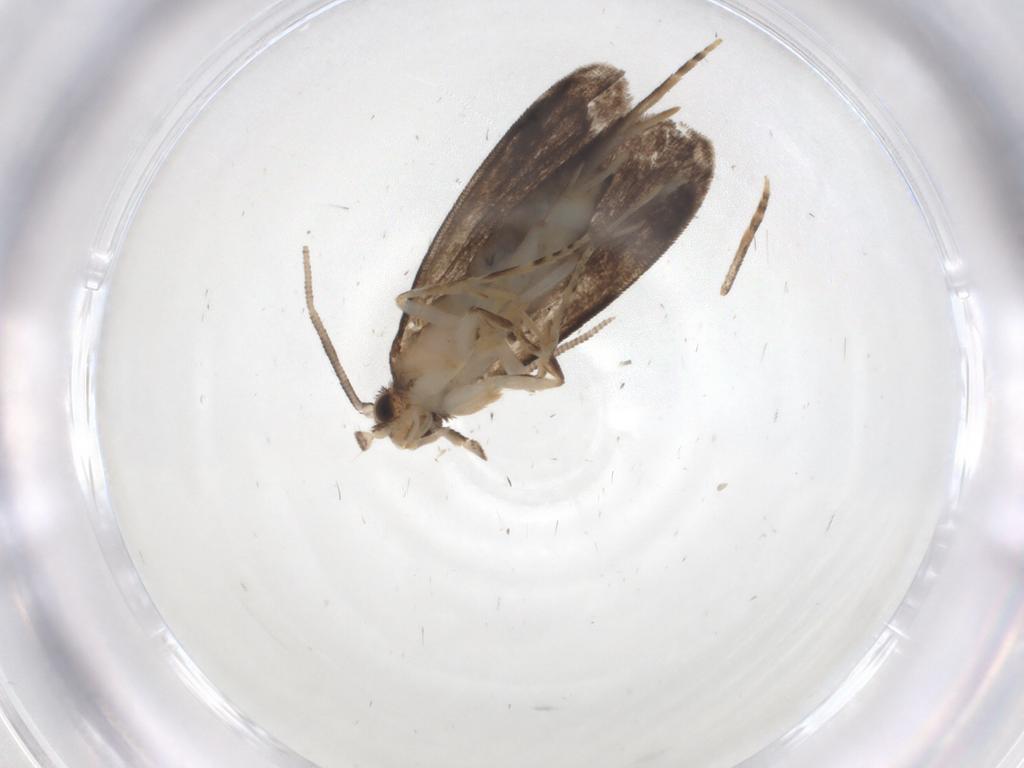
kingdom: Animalia
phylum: Arthropoda
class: Insecta
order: Lepidoptera
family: Dryadaulidae
